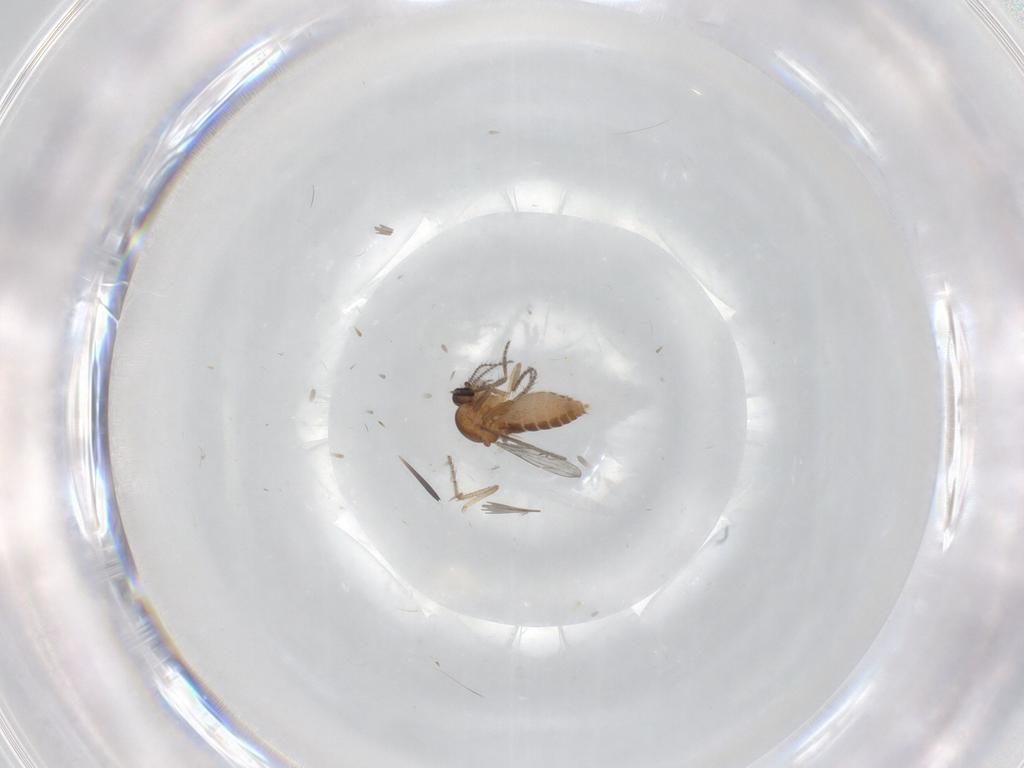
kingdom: Animalia
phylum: Arthropoda
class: Insecta
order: Diptera
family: Ceratopogonidae
